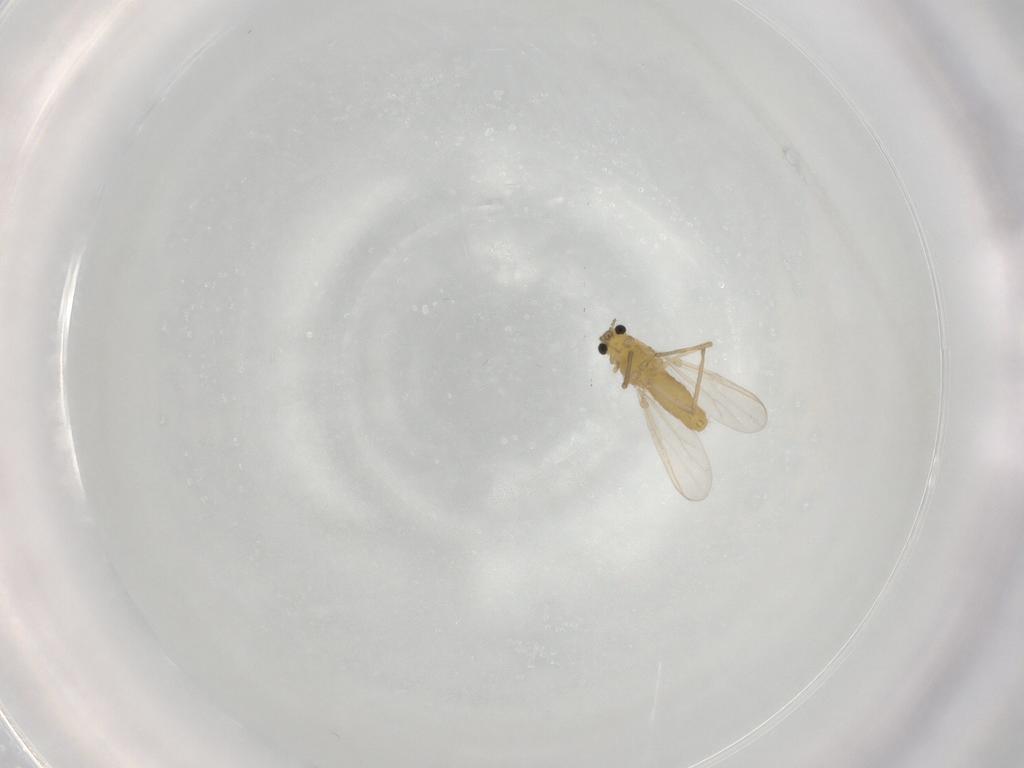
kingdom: Animalia
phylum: Arthropoda
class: Insecta
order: Diptera
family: Chironomidae
